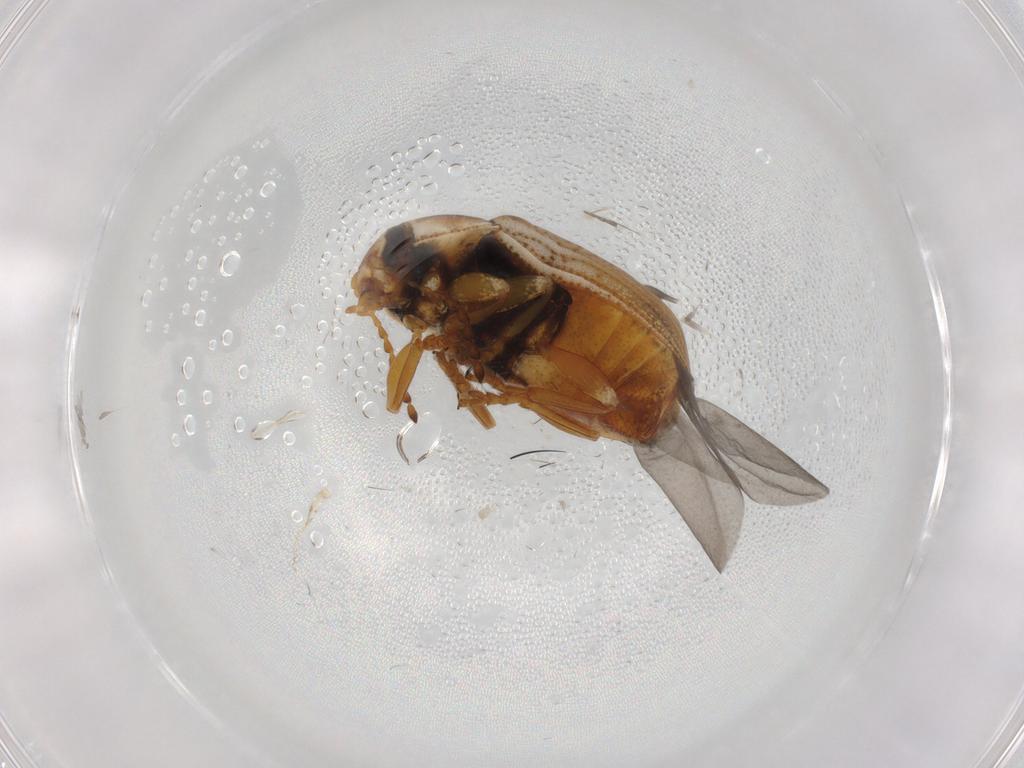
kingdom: Animalia
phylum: Arthropoda
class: Insecta
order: Coleoptera
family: Chrysomelidae
